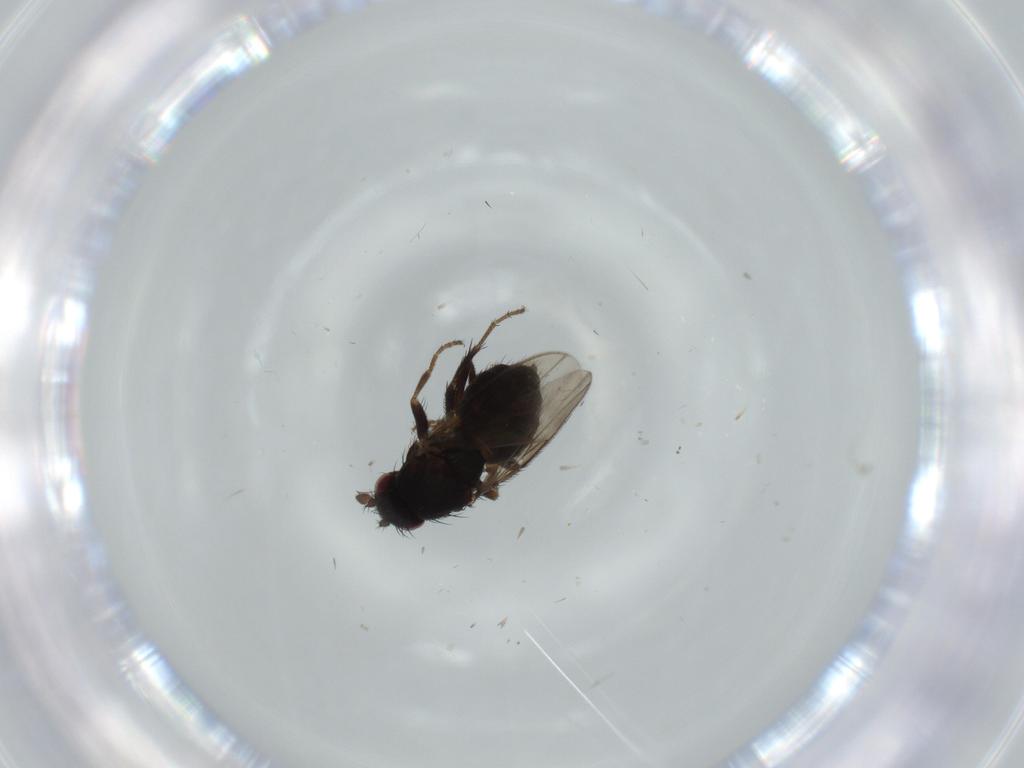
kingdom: Animalia
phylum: Arthropoda
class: Insecta
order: Diptera
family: Sphaeroceridae
